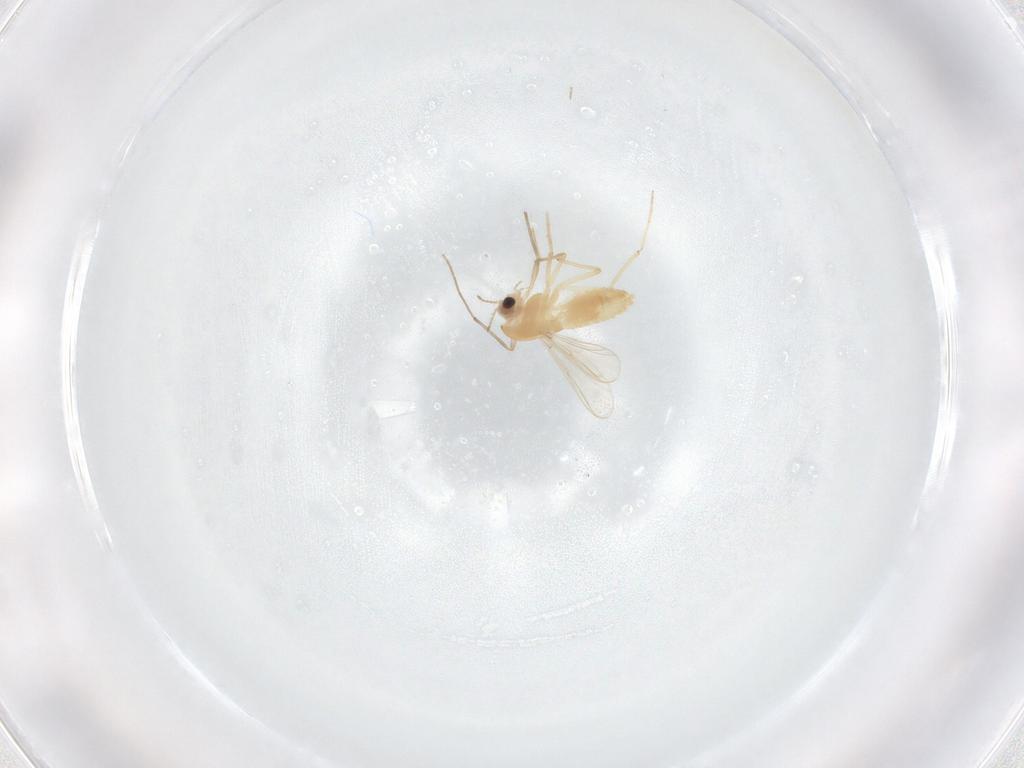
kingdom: Animalia
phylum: Arthropoda
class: Insecta
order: Diptera
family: Ceratopogonidae
